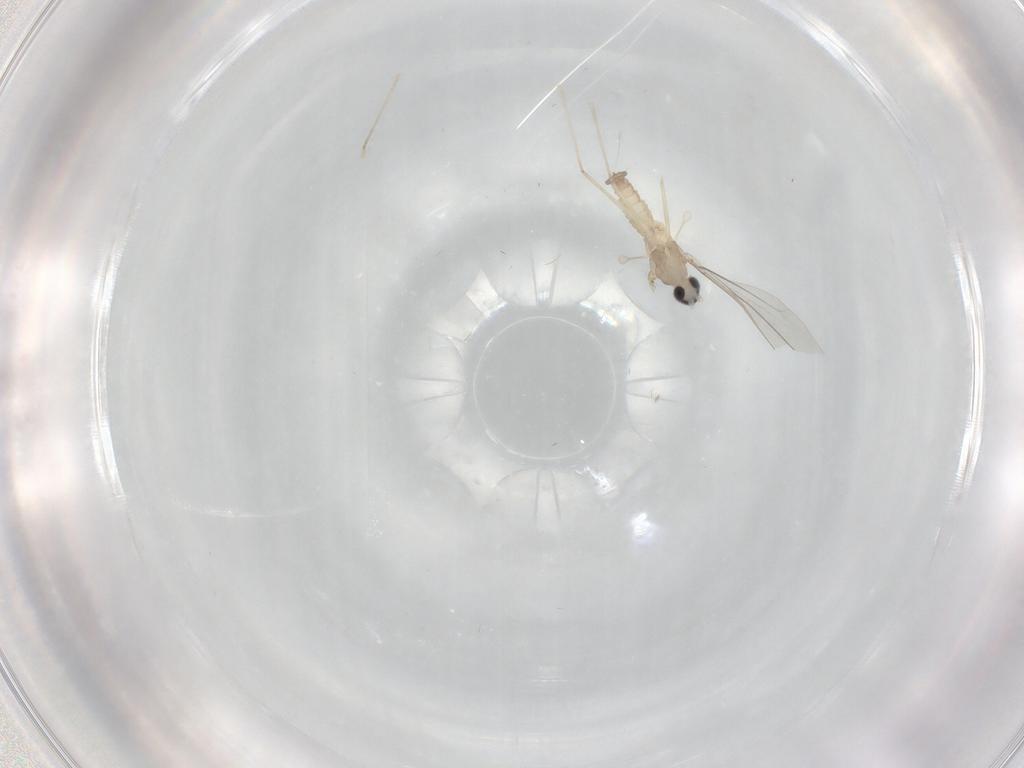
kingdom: Animalia
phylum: Arthropoda
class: Insecta
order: Diptera
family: Cecidomyiidae
